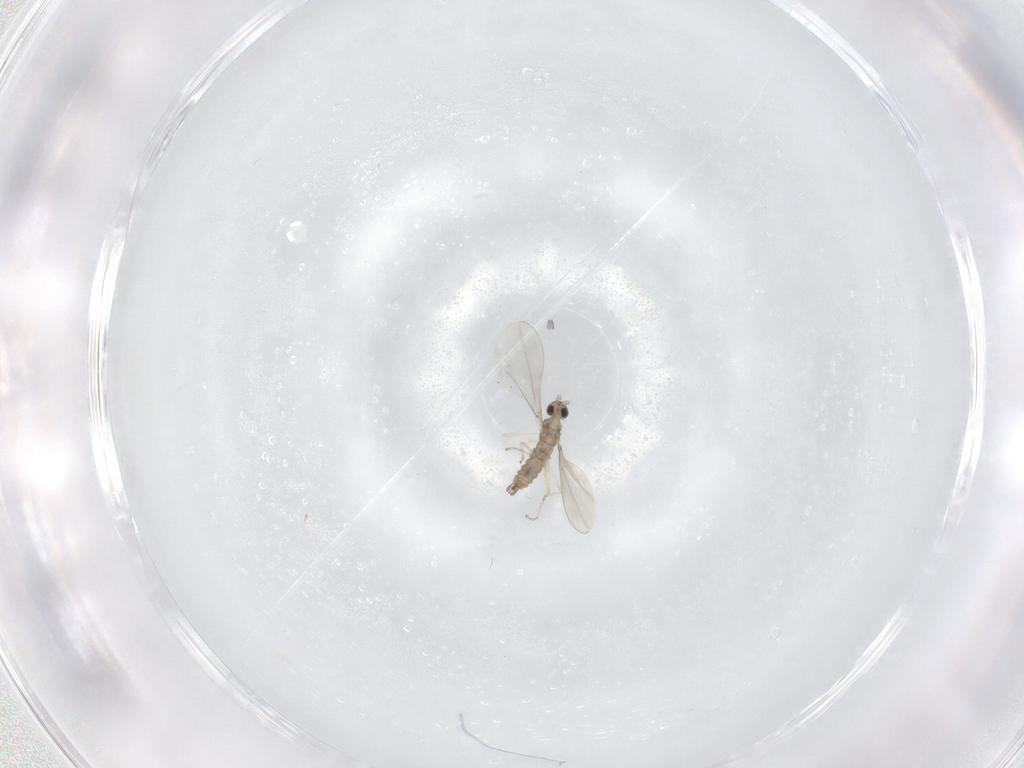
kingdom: Animalia
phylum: Arthropoda
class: Insecta
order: Diptera
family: Cecidomyiidae
